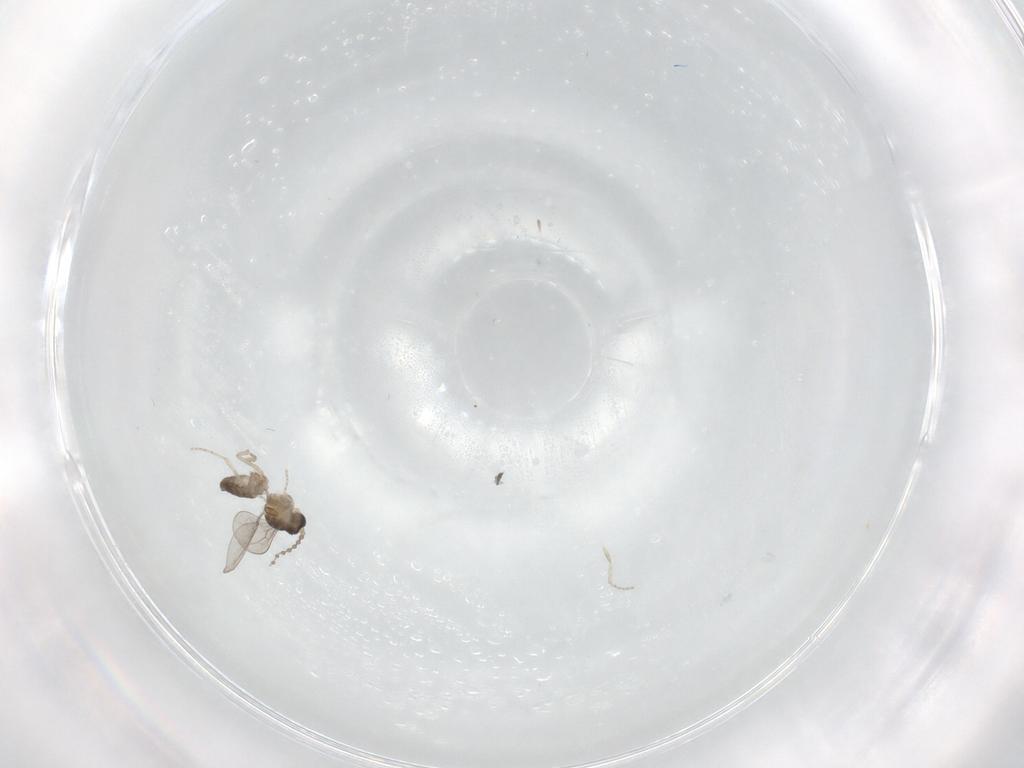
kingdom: Animalia
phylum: Arthropoda
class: Insecta
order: Diptera
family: Cecidomyiidae
